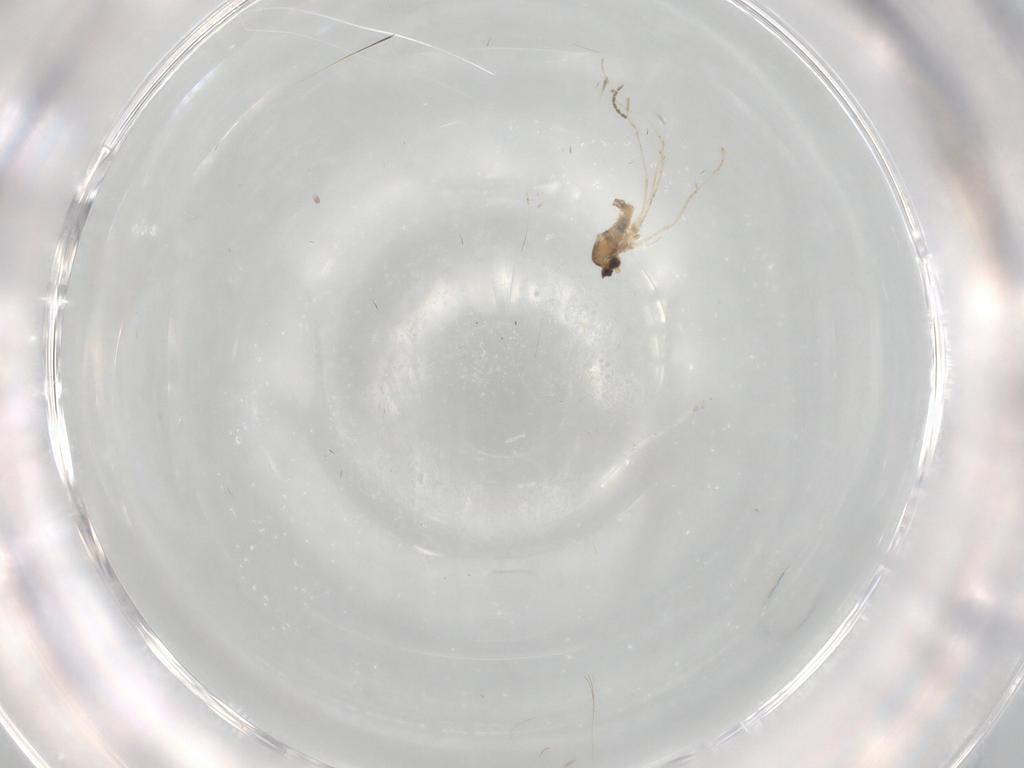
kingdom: Animalia
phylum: Arthropoda
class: Insecta
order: Diptera
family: Cecidomyiidae
